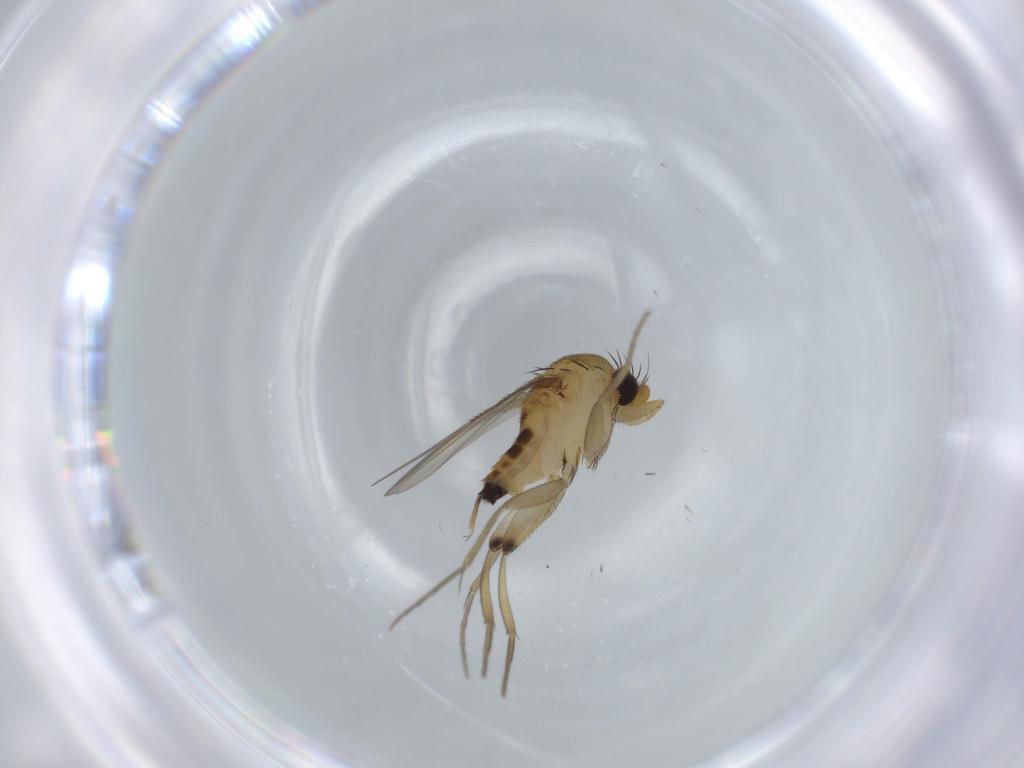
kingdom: Animalia
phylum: Arthropoda
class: Insecta
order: Diptera
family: Phoridae
